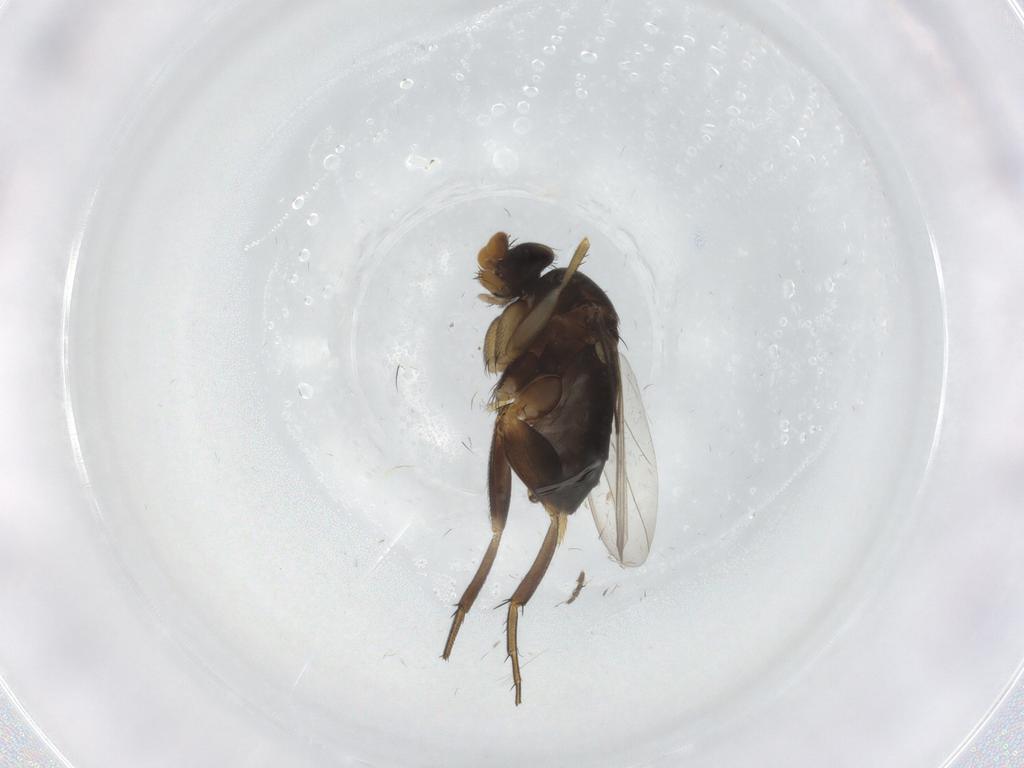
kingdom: Animalia
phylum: Arthropoda
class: Insecta
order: Diptera
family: Phoridae
